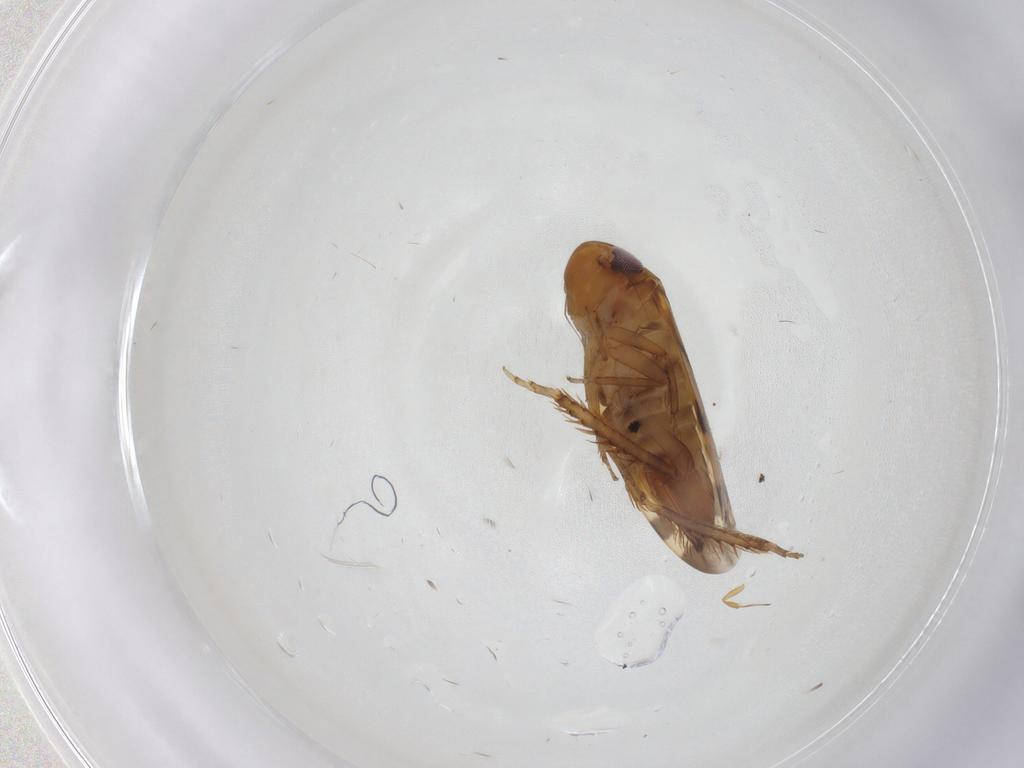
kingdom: Animalia
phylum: Arthropoda
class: Insecta
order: Hemiptera
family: Cicadellidae
